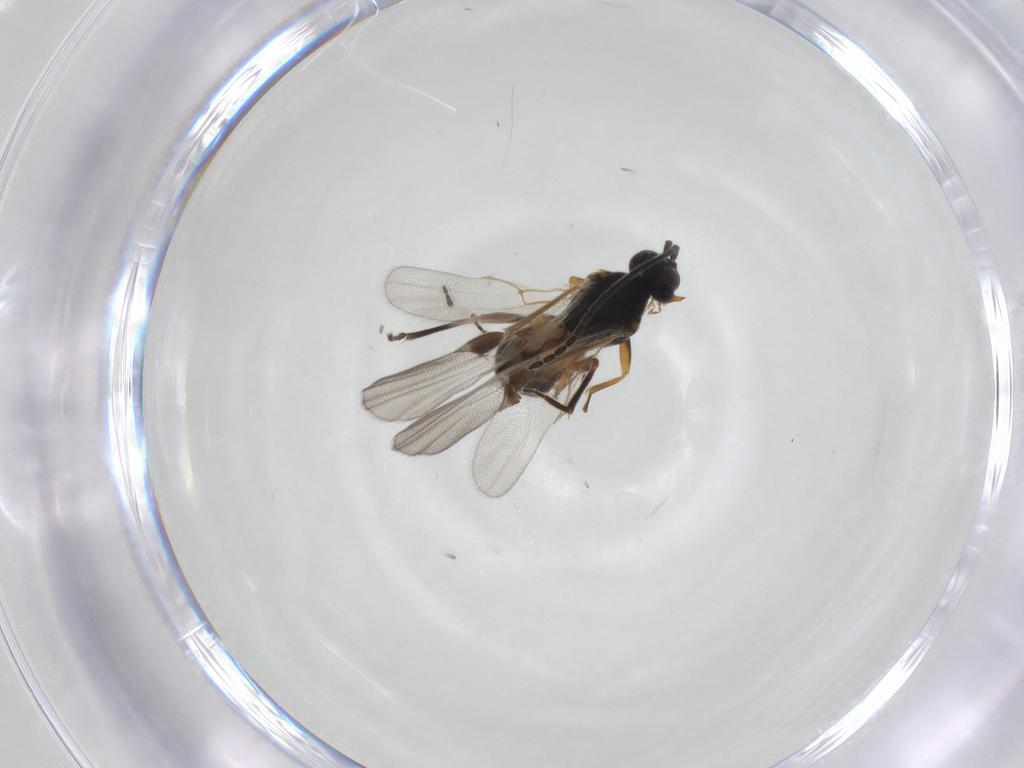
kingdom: Animalia
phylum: Arthropoda
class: Insecta
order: Hymenoptera
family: Braconidae
